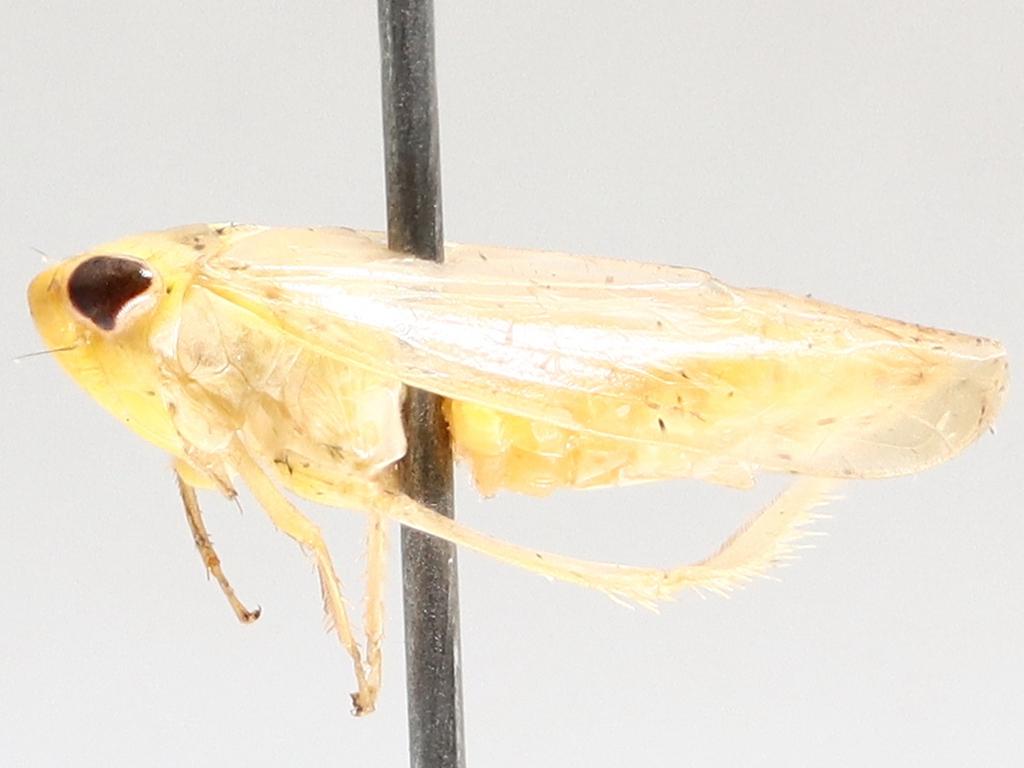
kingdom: Animalia
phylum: Arthropoda
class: Insecta
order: Diptera
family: Ditomyiidae
